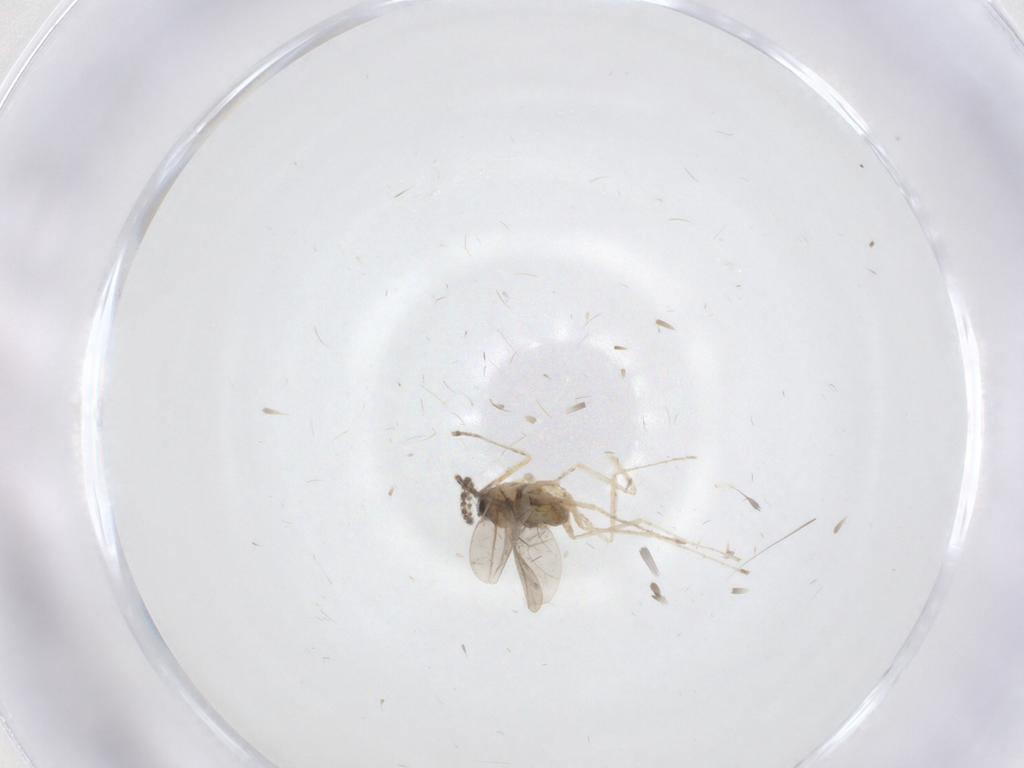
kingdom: Animalia
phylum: Arthropoda
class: Insecta
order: Diptera
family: Cecidomyiidae
